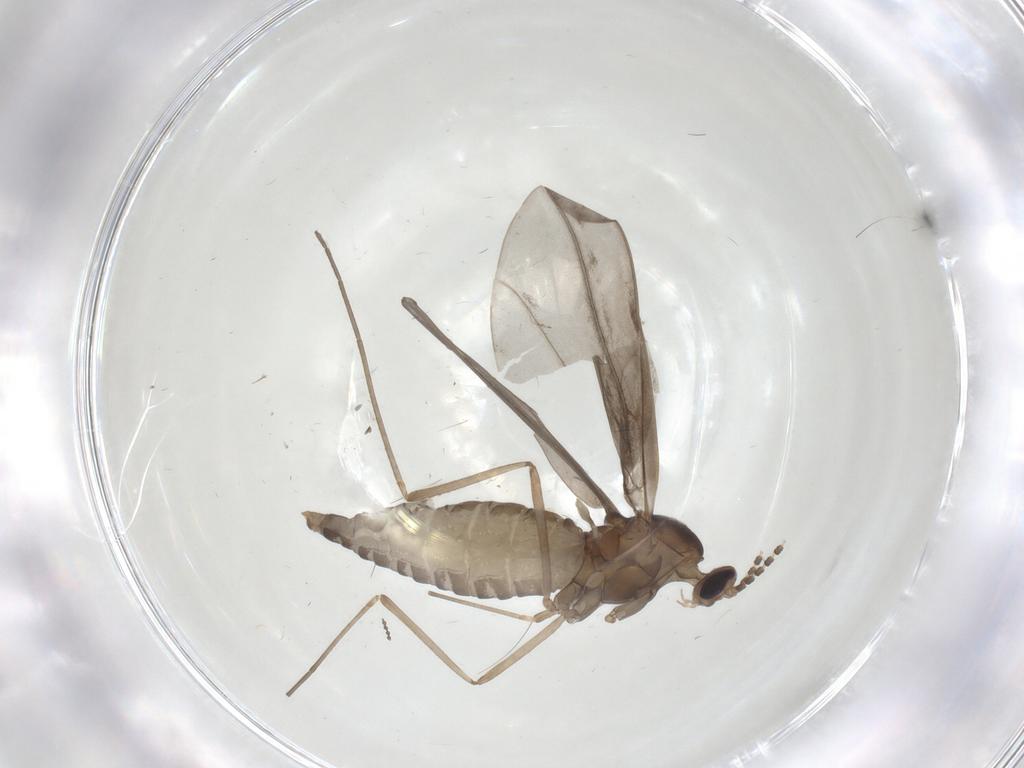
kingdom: Animalia
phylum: Arthropoda
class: Insecta
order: Diptera
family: Cecidomyiidae
